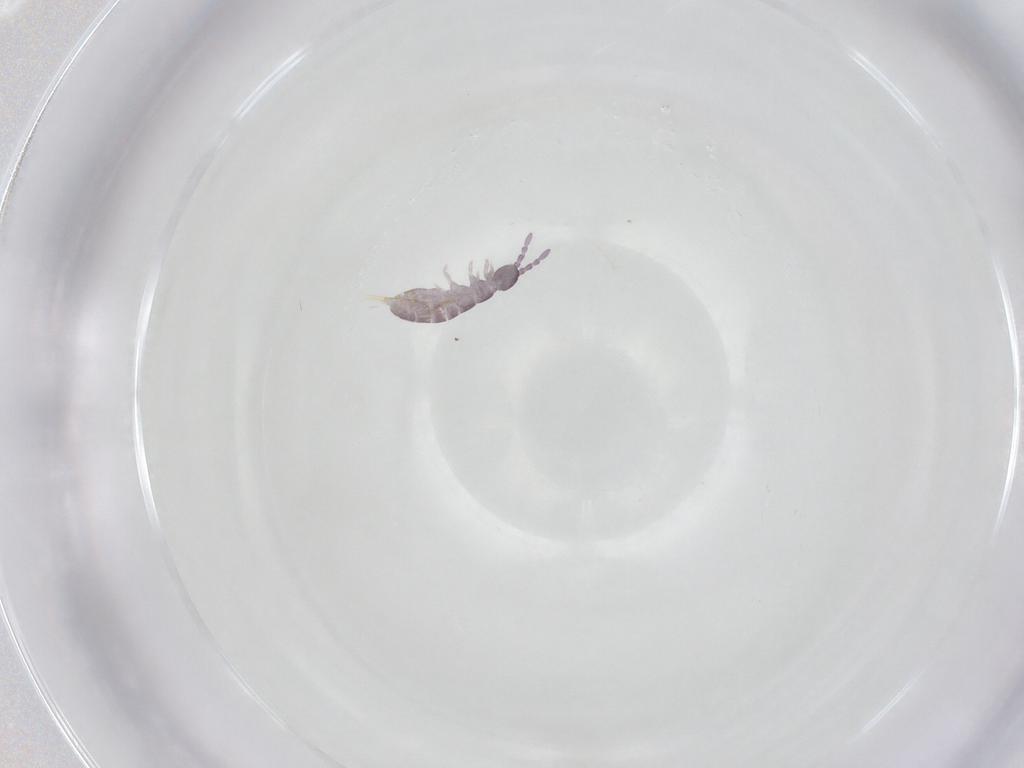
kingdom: Animalia
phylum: Arthropoda
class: Collembola
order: Entomobryomorpha
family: Isotomidae
